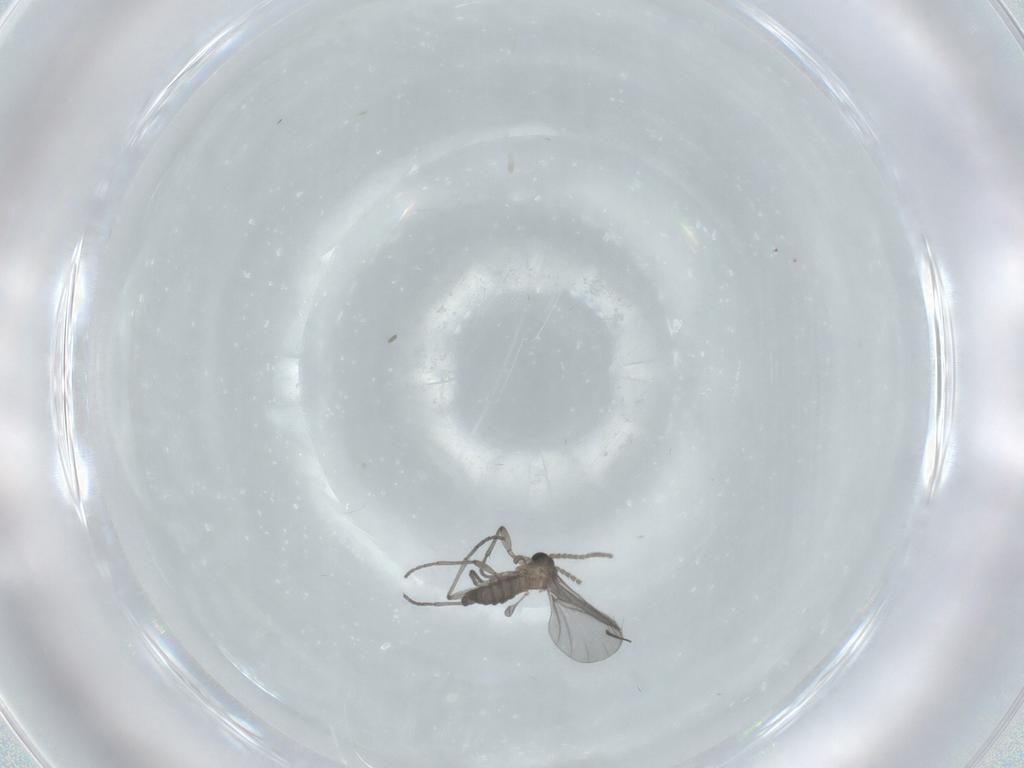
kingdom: Animalia
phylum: Arthropoda
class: Insecta
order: Diptera
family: Sciaridae
